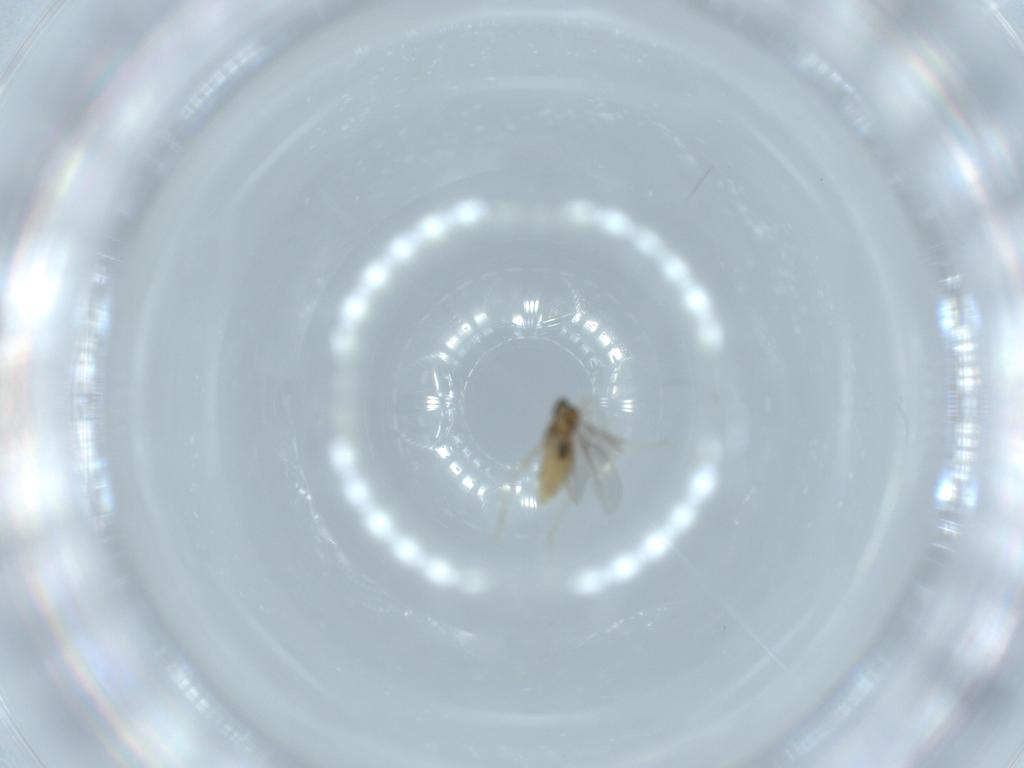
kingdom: Animalia
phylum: Arthropoda
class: Insecta
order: Diptera
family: Cecidomyiidae
